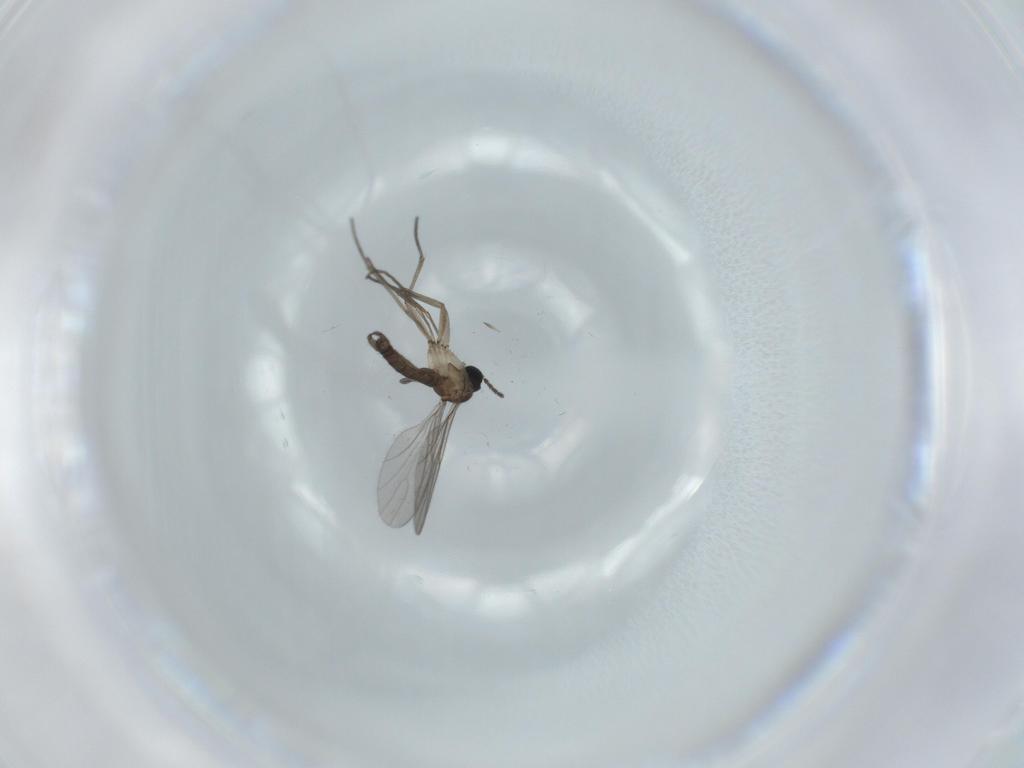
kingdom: Animalia
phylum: Arthropoda
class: Insecta
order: Diptera
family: Sciaridae
